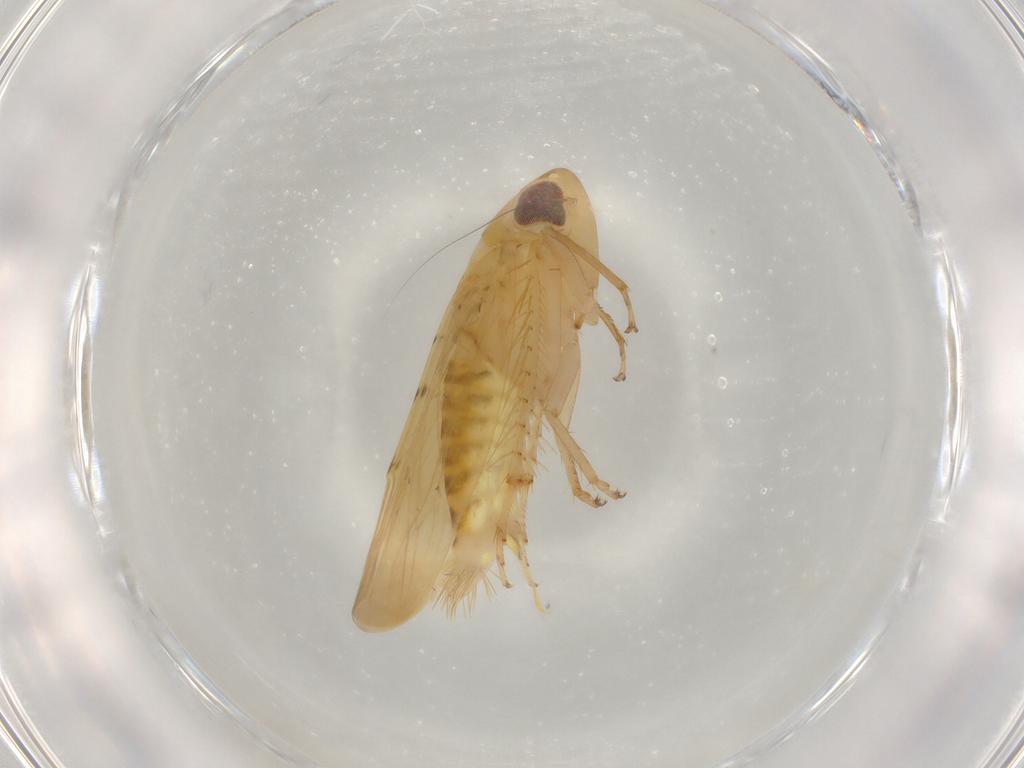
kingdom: Animalia
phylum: Arthropoda
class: Insecta
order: Hemiptera
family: Cicadellidae
